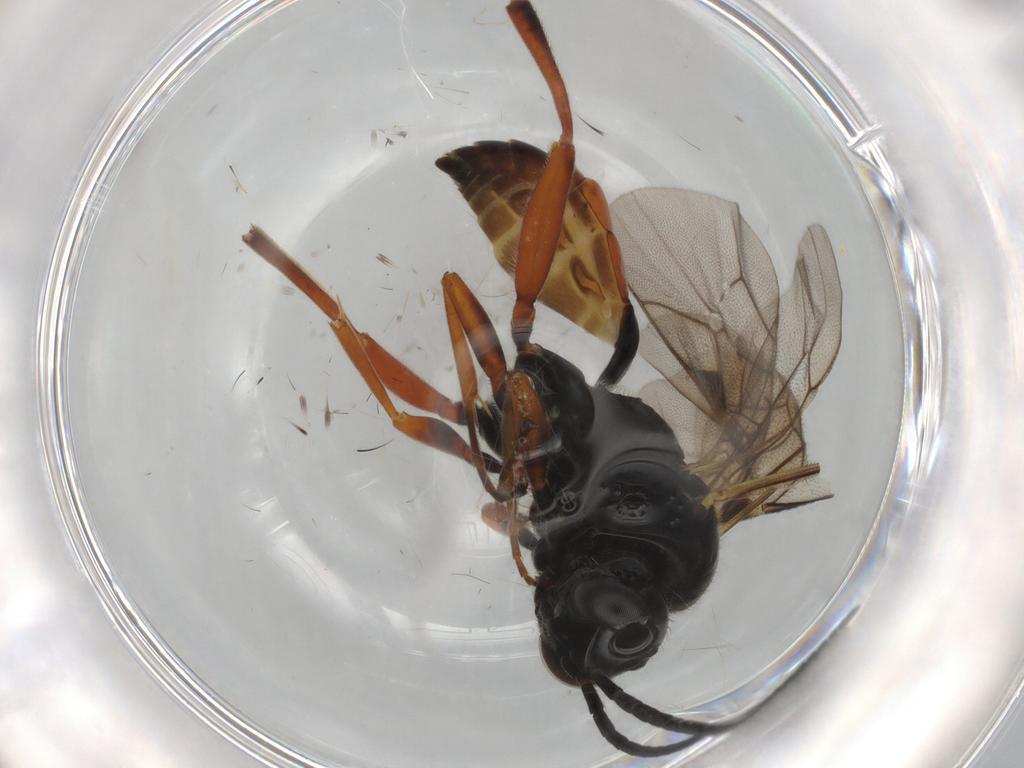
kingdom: Animalia
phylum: Arthropoda
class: Insecta
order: Hymenoptera
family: Ichneumonidae
